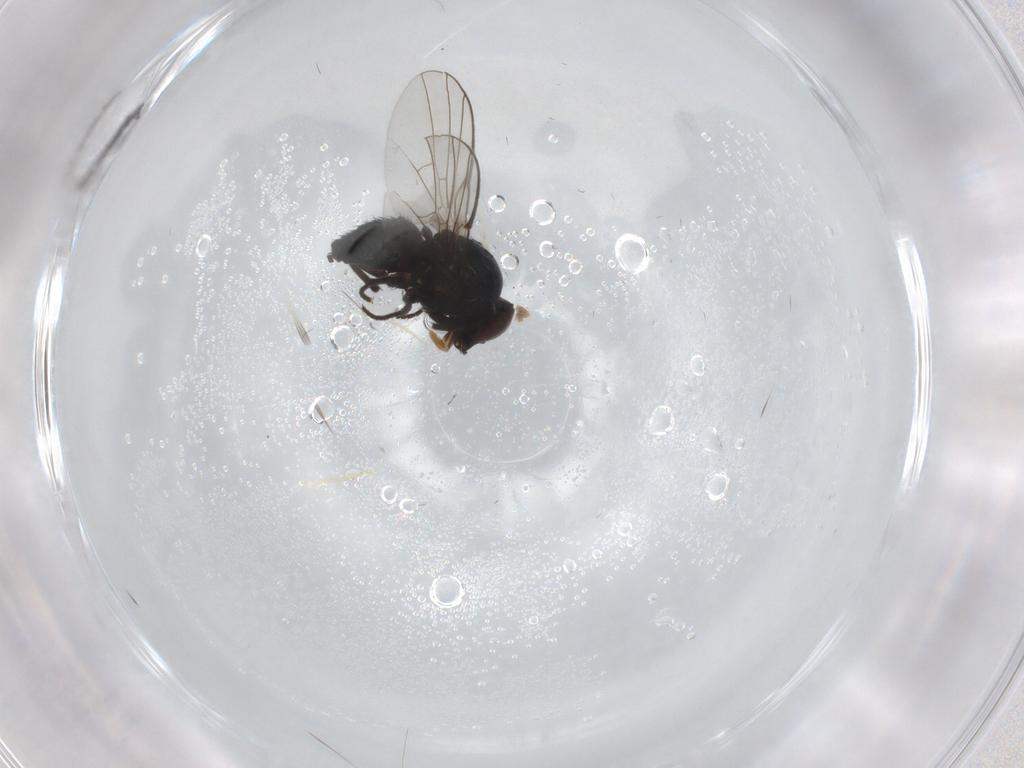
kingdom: Animalia
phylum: Arthropoda
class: Insecta
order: Diptera
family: Agromyzidae
